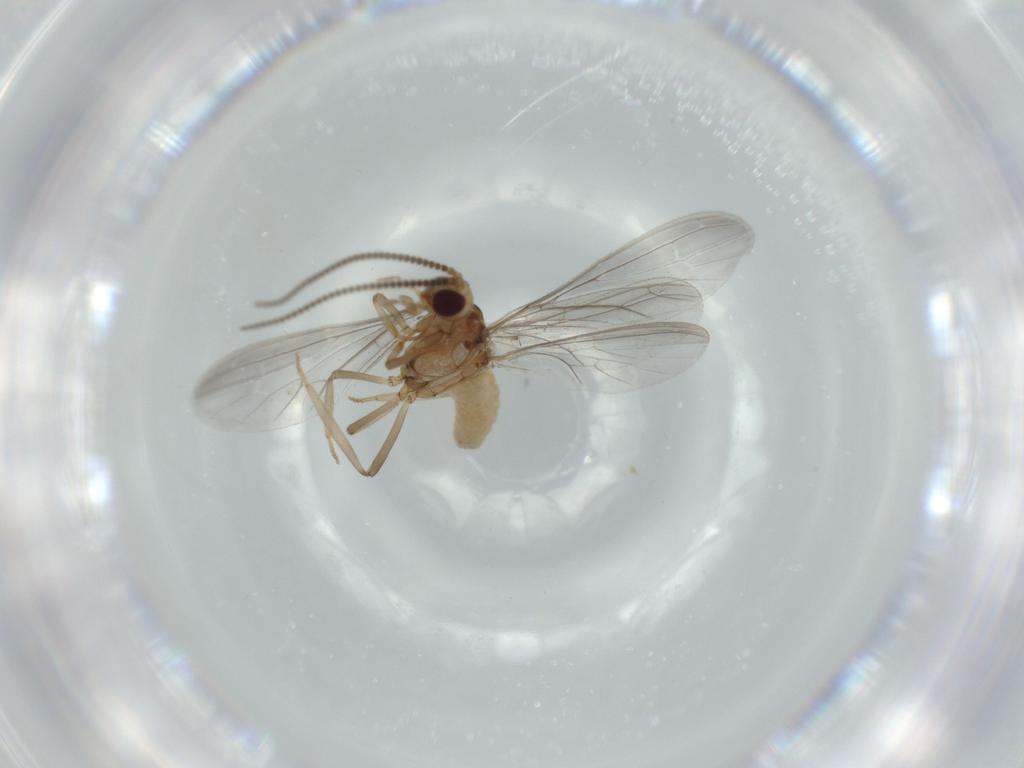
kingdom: Animalia
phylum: Arthropoda
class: Insecta
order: Neuroptera
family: Coniopterygidae
